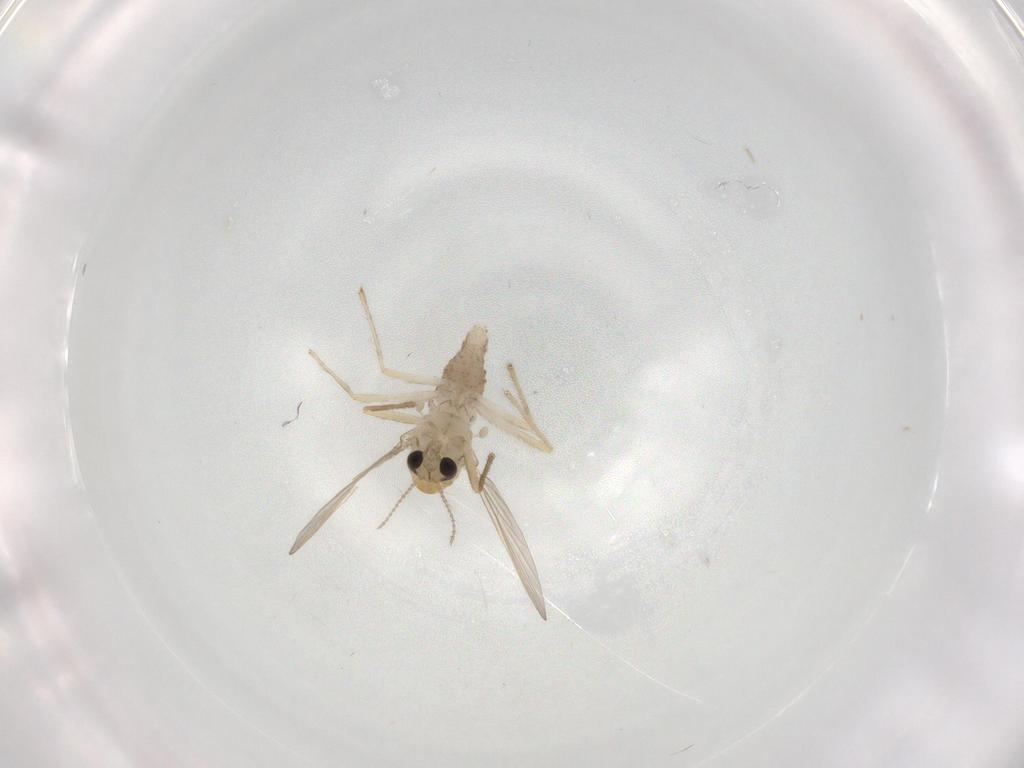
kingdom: Animalia
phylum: Arthropoda
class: Insecta
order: Diptera
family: Chironomidae
